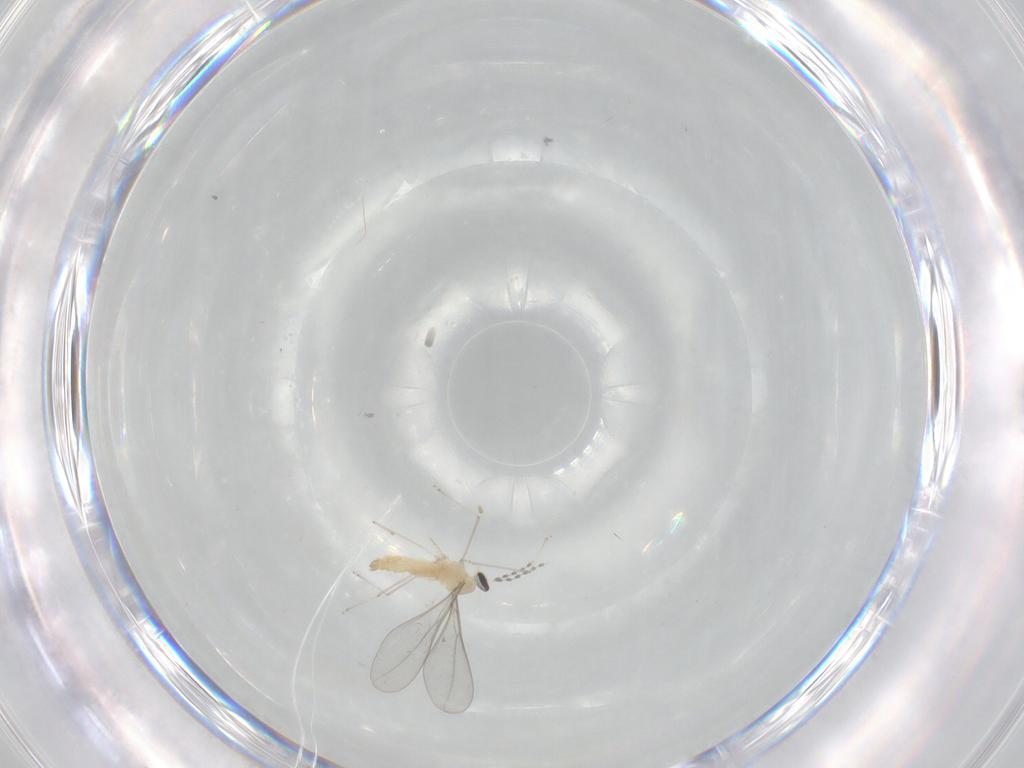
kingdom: Animalia
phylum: Arthropoda
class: Insecta
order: Diptera
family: Cecidomyiidae
